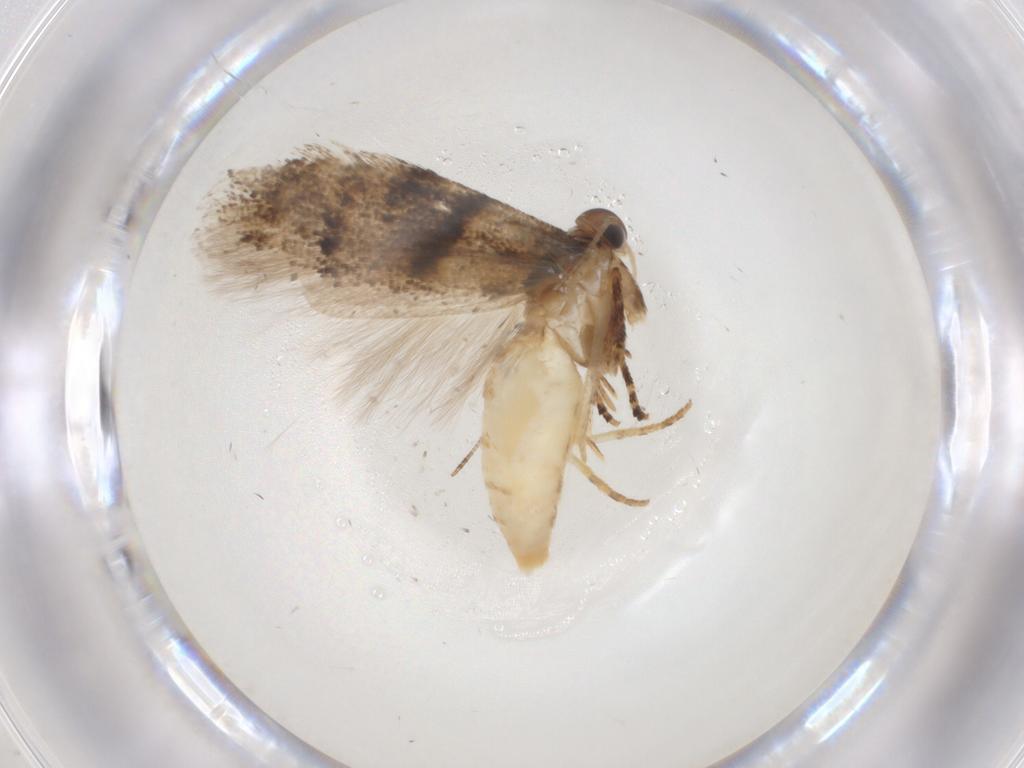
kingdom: Animalia
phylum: Arthropoda
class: Insecta
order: Lepidoptera
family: Gelechiidae
